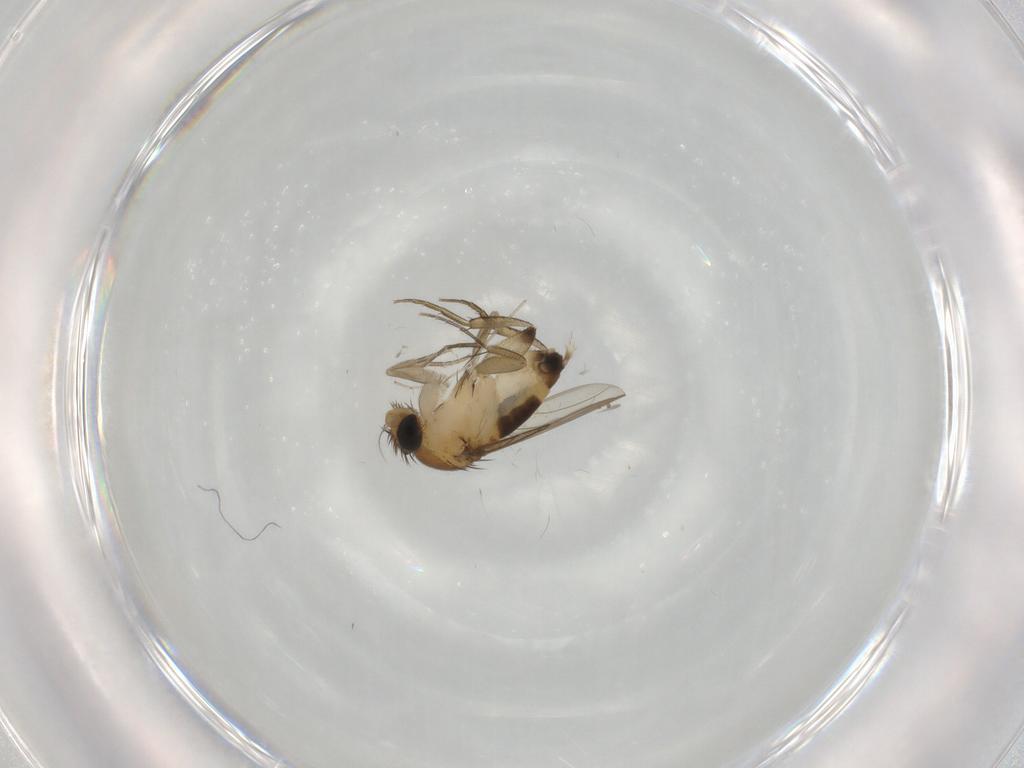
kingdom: Animalia
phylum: Arthropoda
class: Insecta
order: Diptera
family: Phoridae
